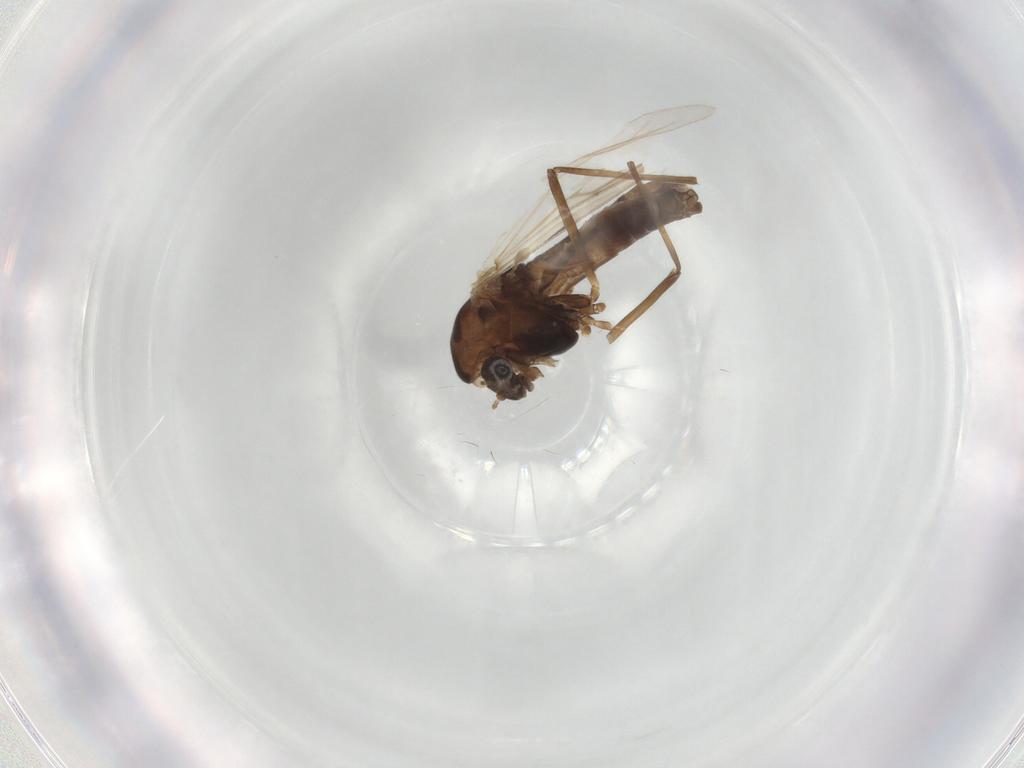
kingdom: Animalia
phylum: Arthropoda
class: Insecta
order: Diptera
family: Chironomidae
